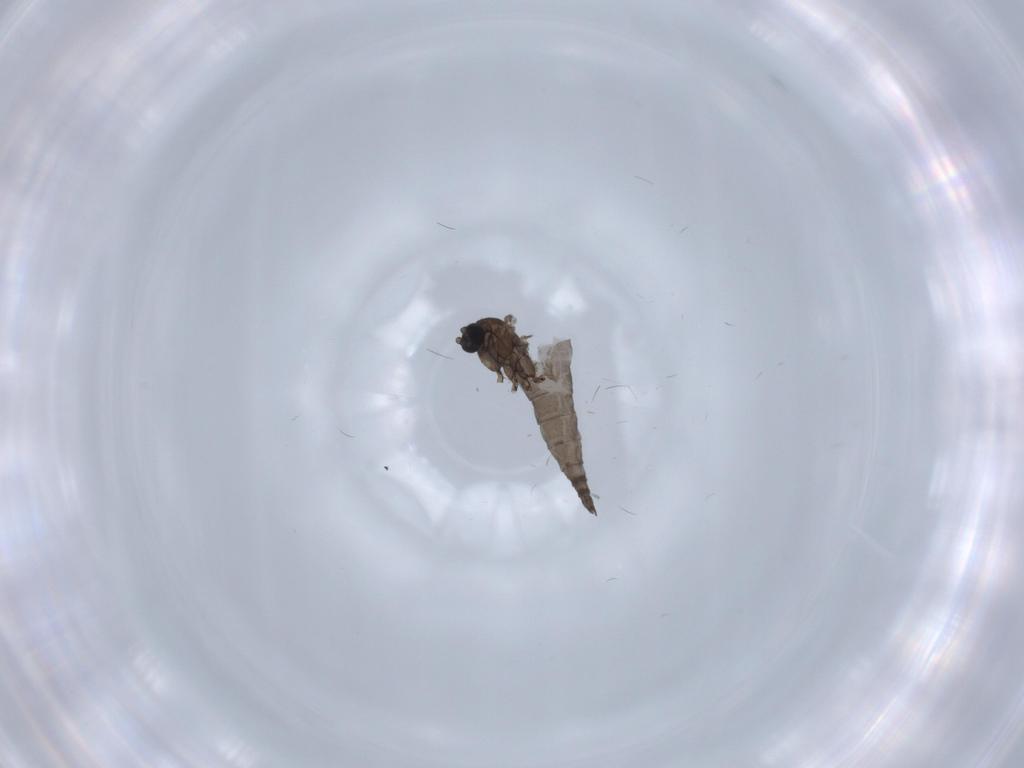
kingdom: Animalia
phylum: Arthropoda
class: Insecta
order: Diptera
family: Sciaridae
